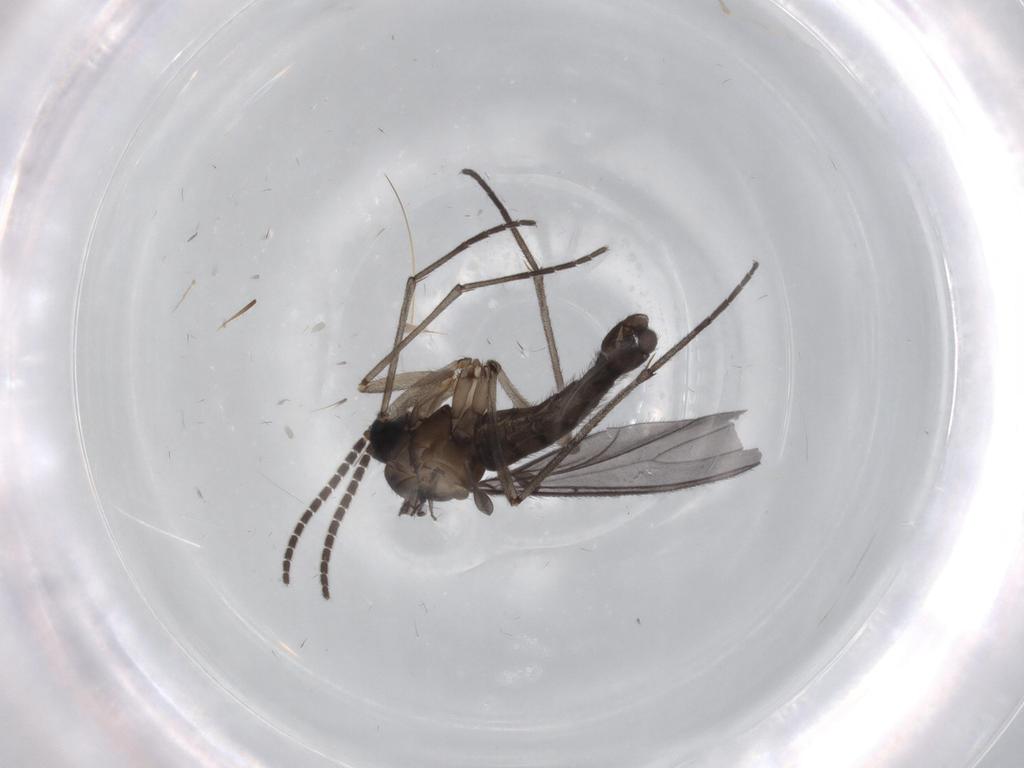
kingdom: Animalia
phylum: Arthropoda
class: Insecta
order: Diptera
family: Sciaridae
